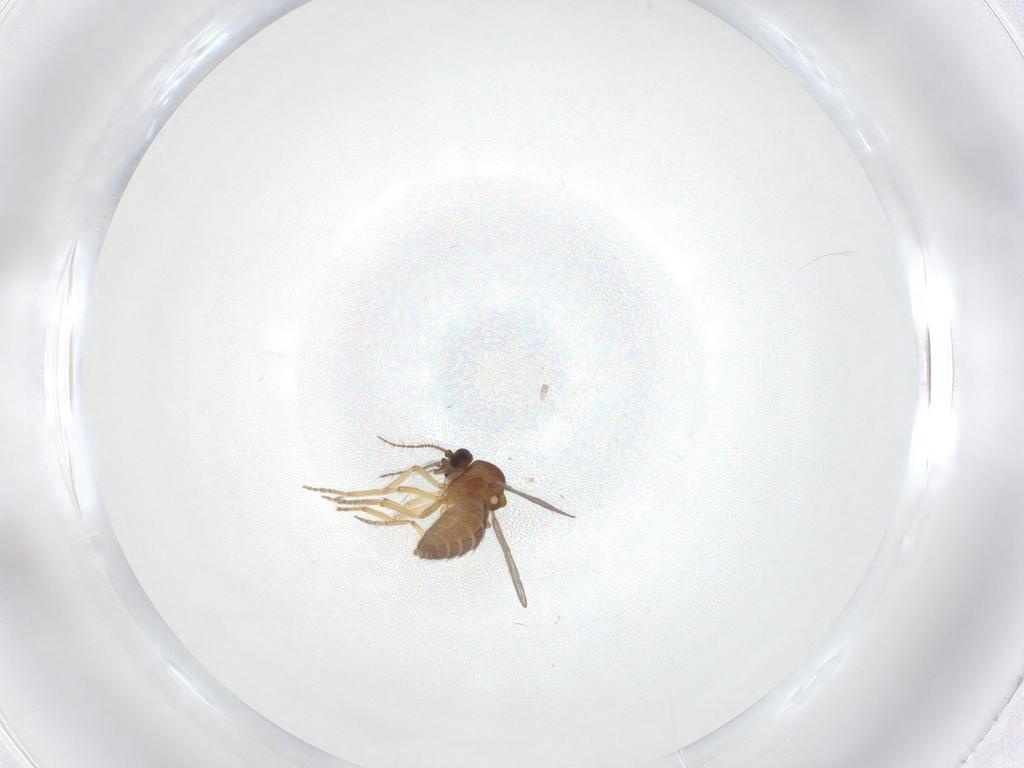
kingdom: Animalia
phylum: Arthropoda
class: Insecta
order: Diptera
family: Ceratopogonidae
